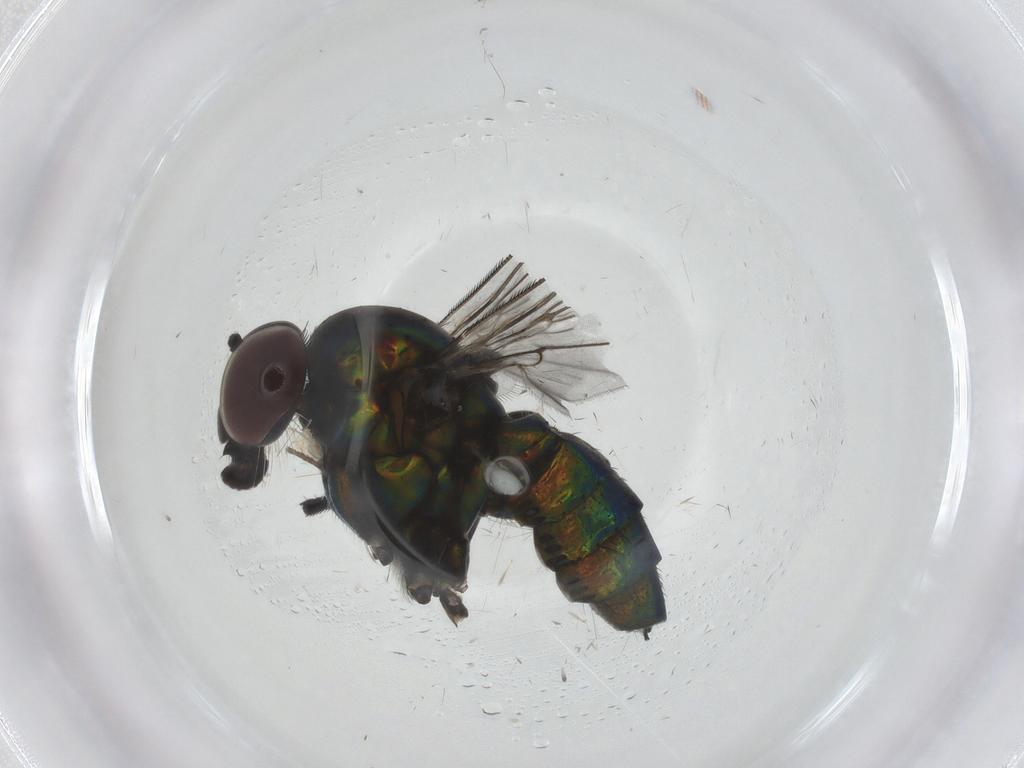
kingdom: Animalia
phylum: Arthropoda
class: Insecta
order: Diptera
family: Dolichopodidae
